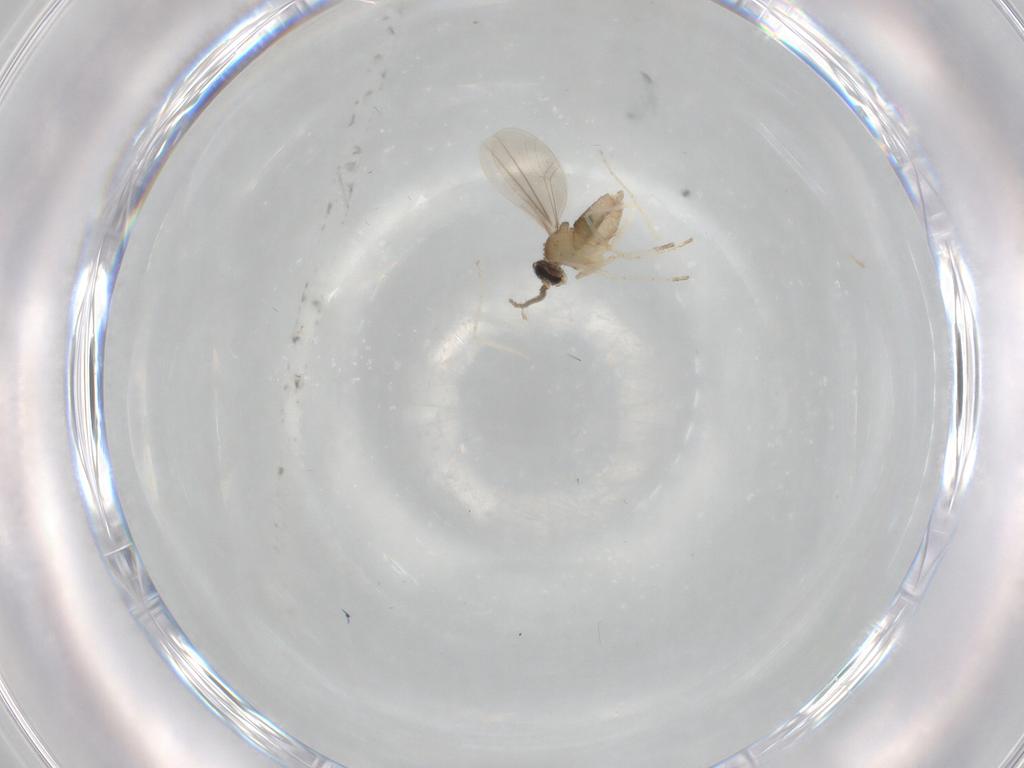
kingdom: Animalia
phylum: Arthropoda
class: Insecta
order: Diptera
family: Cecidomyiidae
